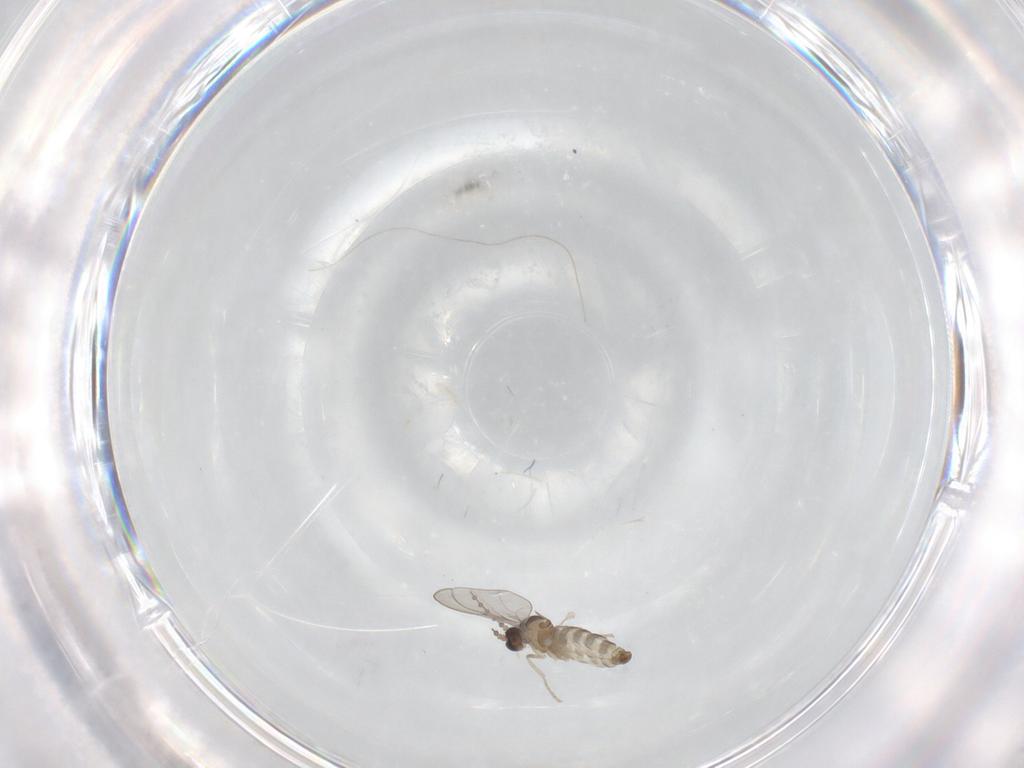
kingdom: Animalia
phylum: Arthropoda
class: Insecta
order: Diptera
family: Cecidomyiidae
